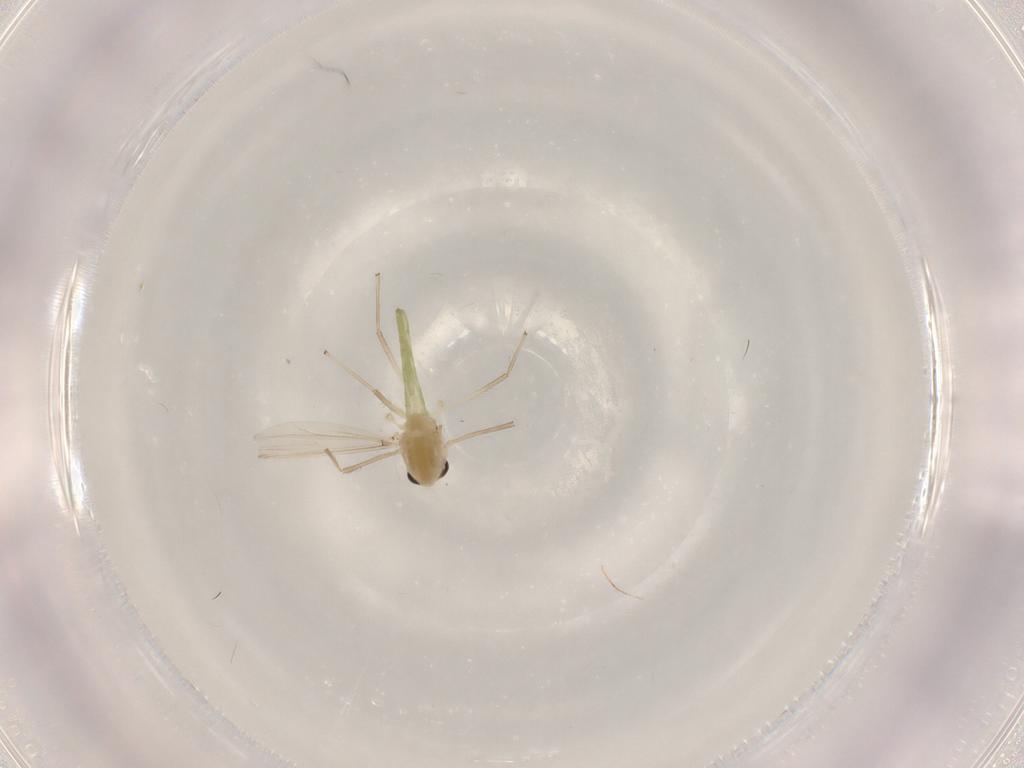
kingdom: Animalia
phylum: Arthropoda
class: Insecta
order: Diptera
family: Chironomidae
